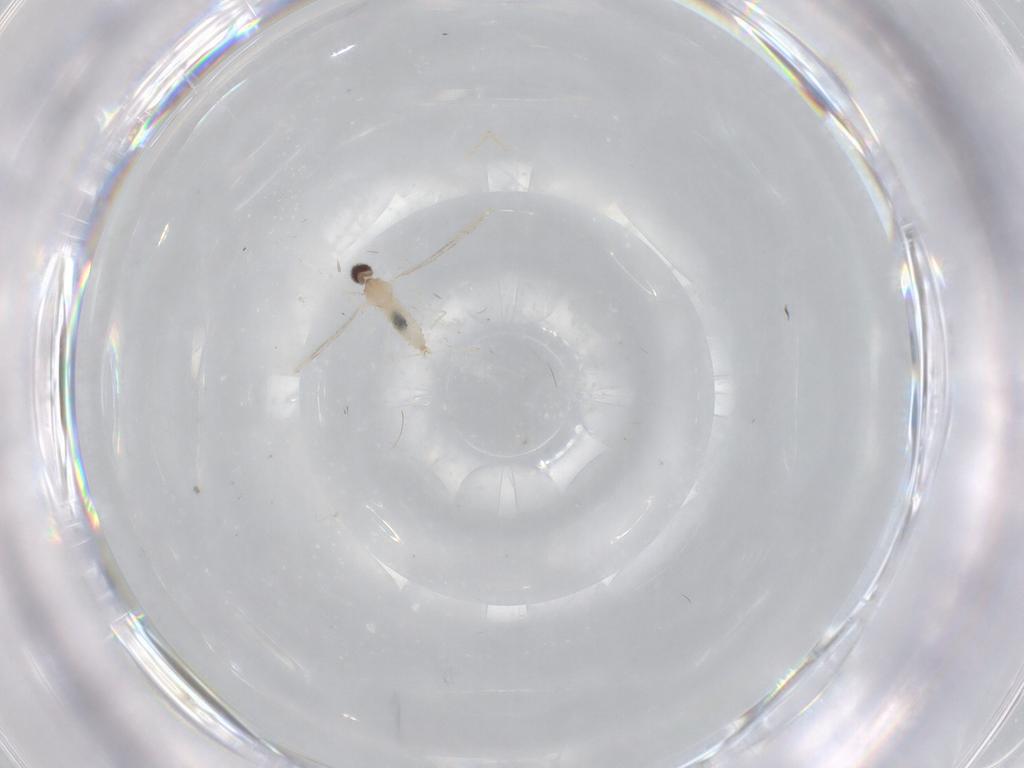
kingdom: Animalia
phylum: Arthropoda
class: Insecta
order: Diptera
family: Cecidomyiidae
